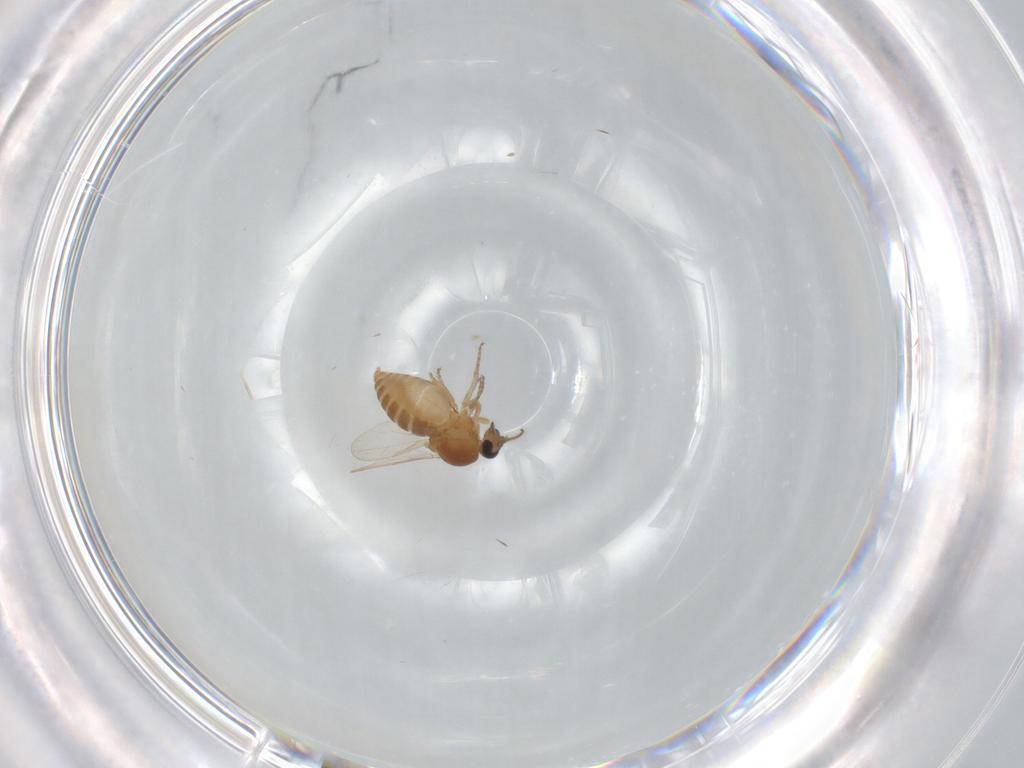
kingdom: Animalia
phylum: Arthropoda
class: Insecta
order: Diptera
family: Ceratopogonidae
